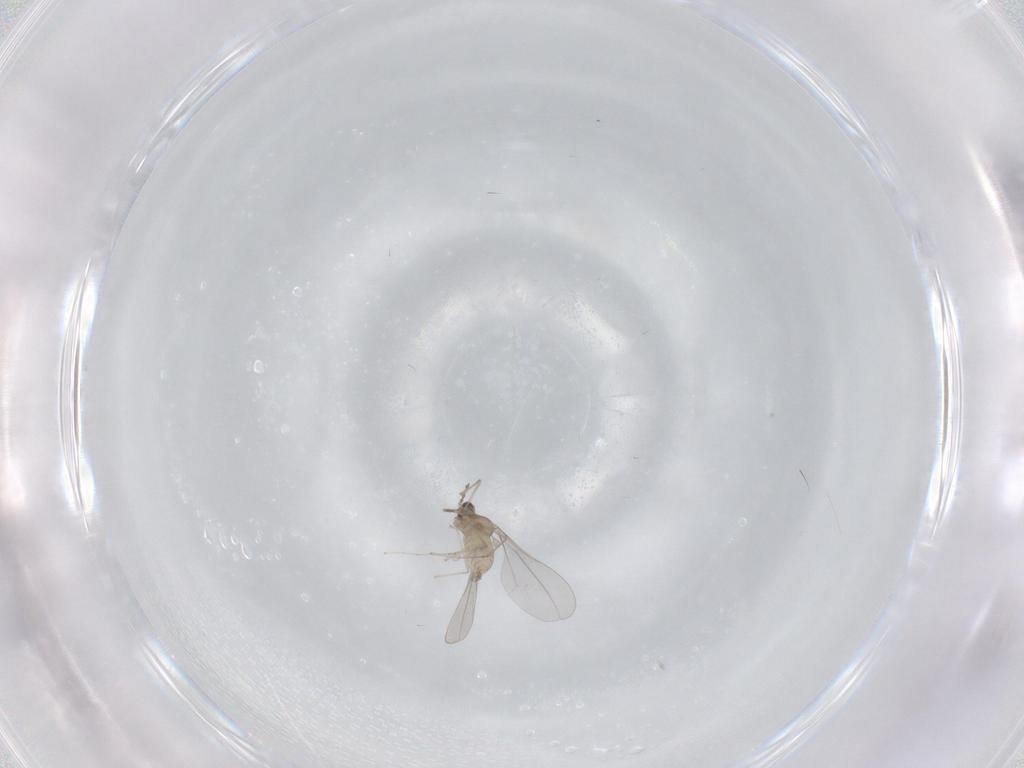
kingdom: Animalia
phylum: Arthropoda
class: Insecta
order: Diptera
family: Cecidomyiidae
